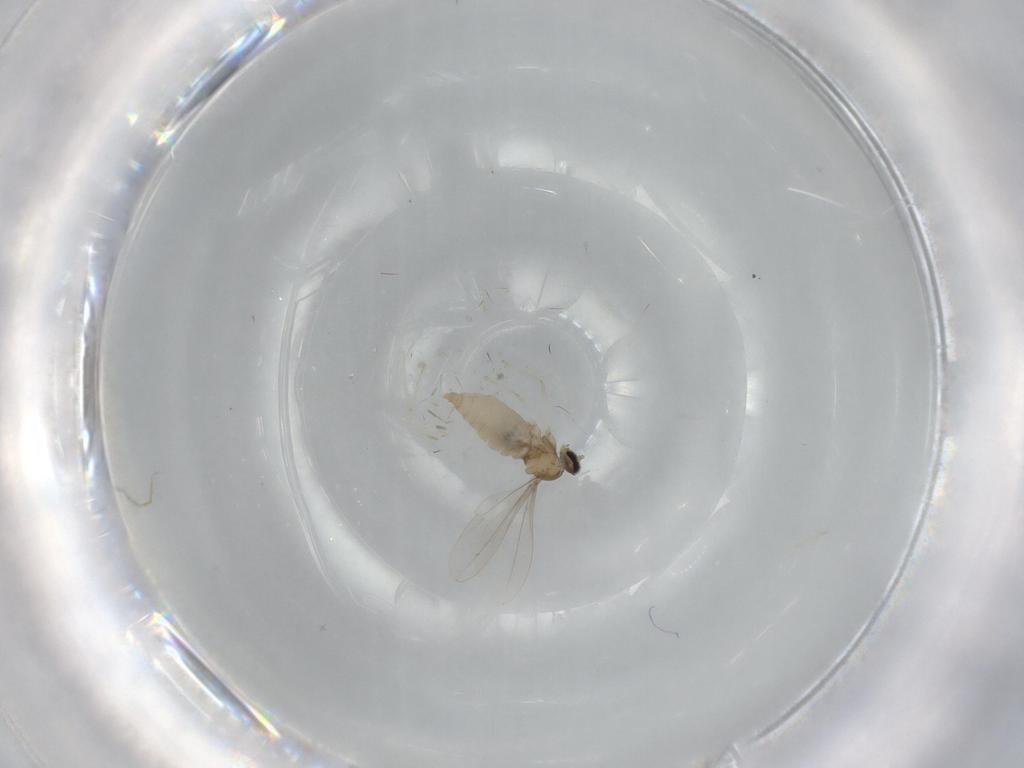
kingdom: Animalia
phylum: Arthropoda
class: Insecta
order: Diptera
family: Cecidomyiidae
